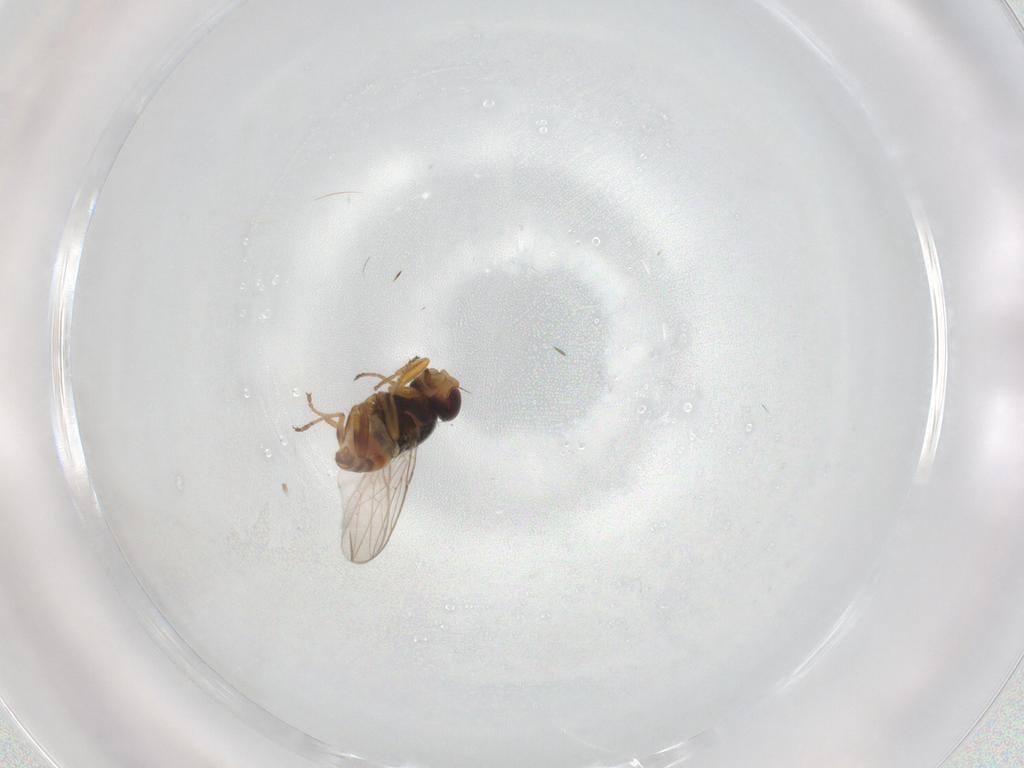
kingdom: Animalia
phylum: Arthropoda
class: Insecta
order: Diptera
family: Chloropidae
